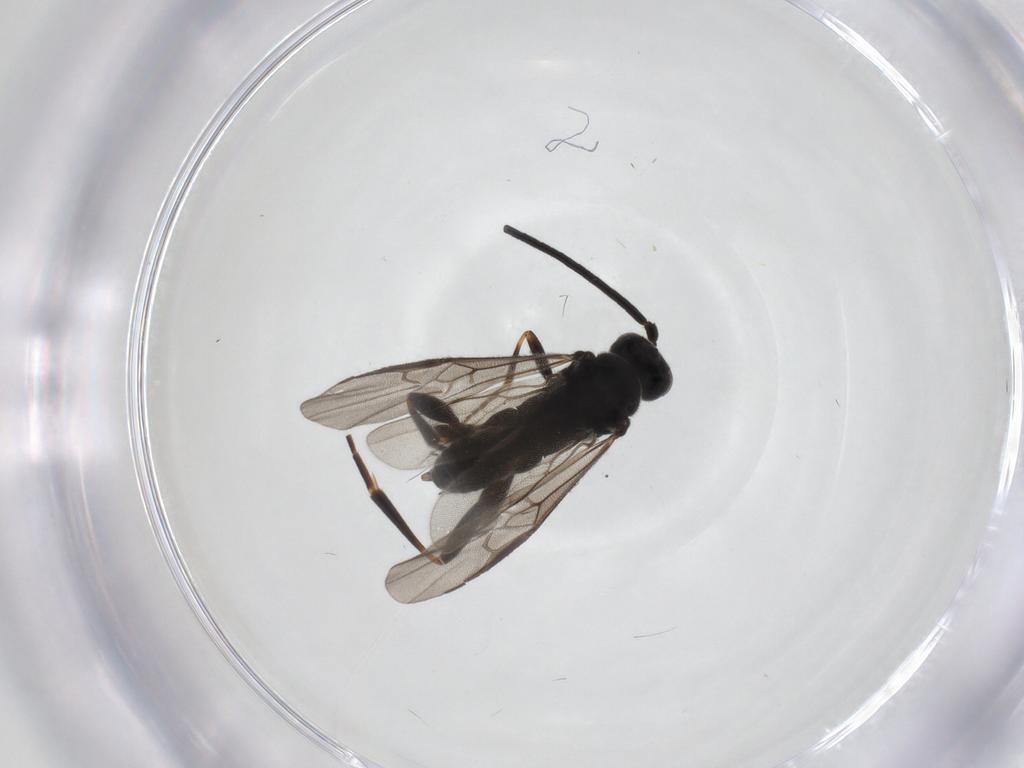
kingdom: Animalia
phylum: Arthropoda
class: Insecta
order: Hymenoptera
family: Braconidae
